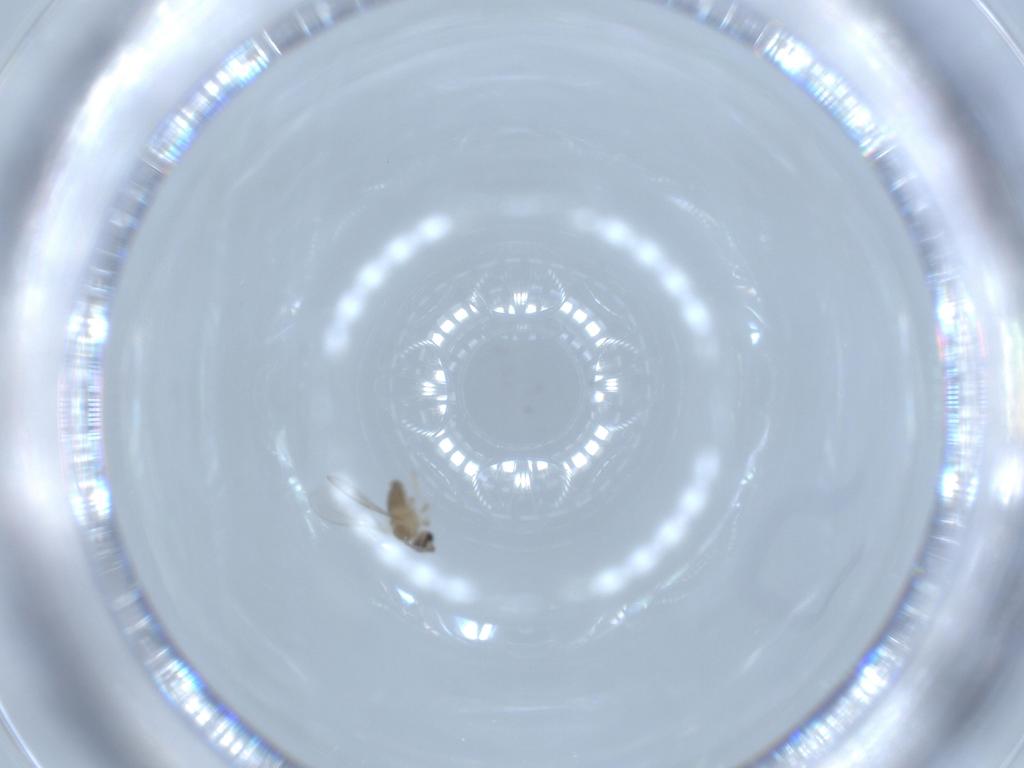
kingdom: Animalia
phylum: Arthropoda
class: Insecta
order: Diptera
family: Cecidomyiidae
